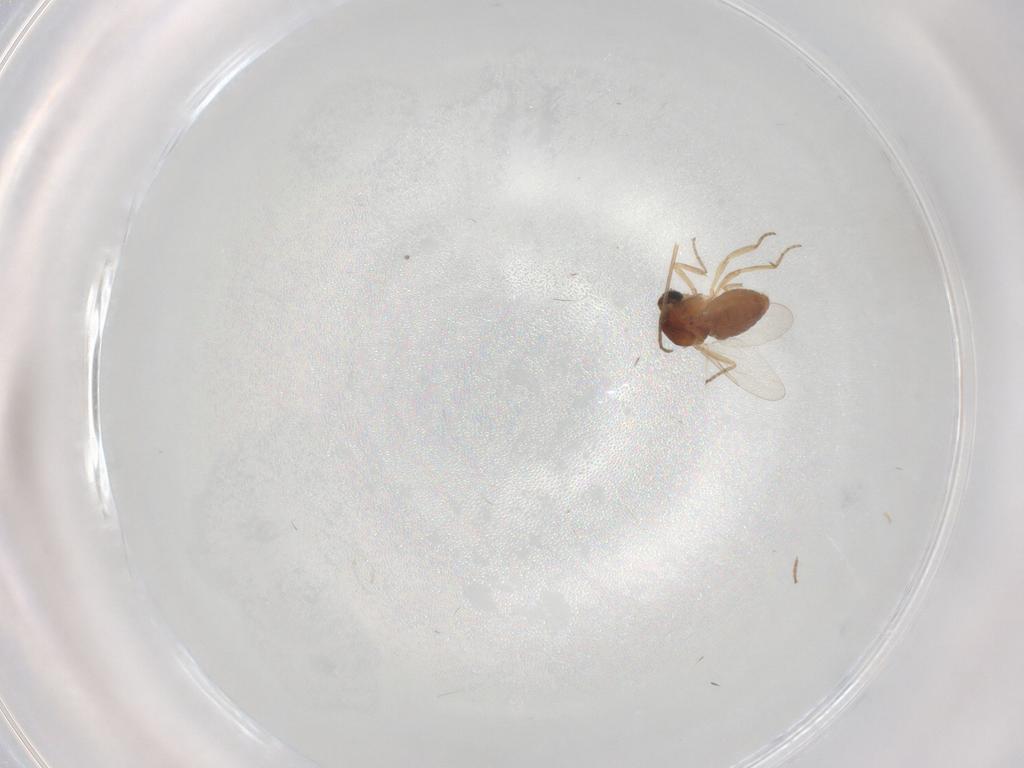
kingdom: Animalia
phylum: Arthropoda
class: Insecta
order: Diptera
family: Ceratopogonidae
